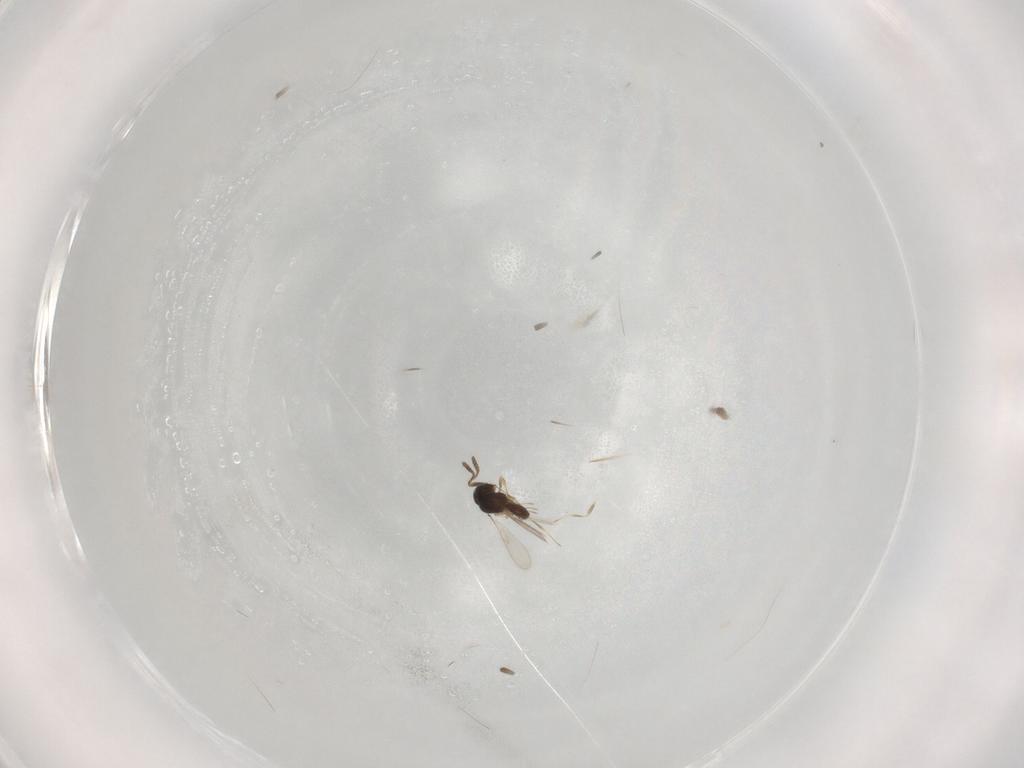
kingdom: Animalia
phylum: Arthropoda
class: Insecta
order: Hymenoptera
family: Scelionidae
